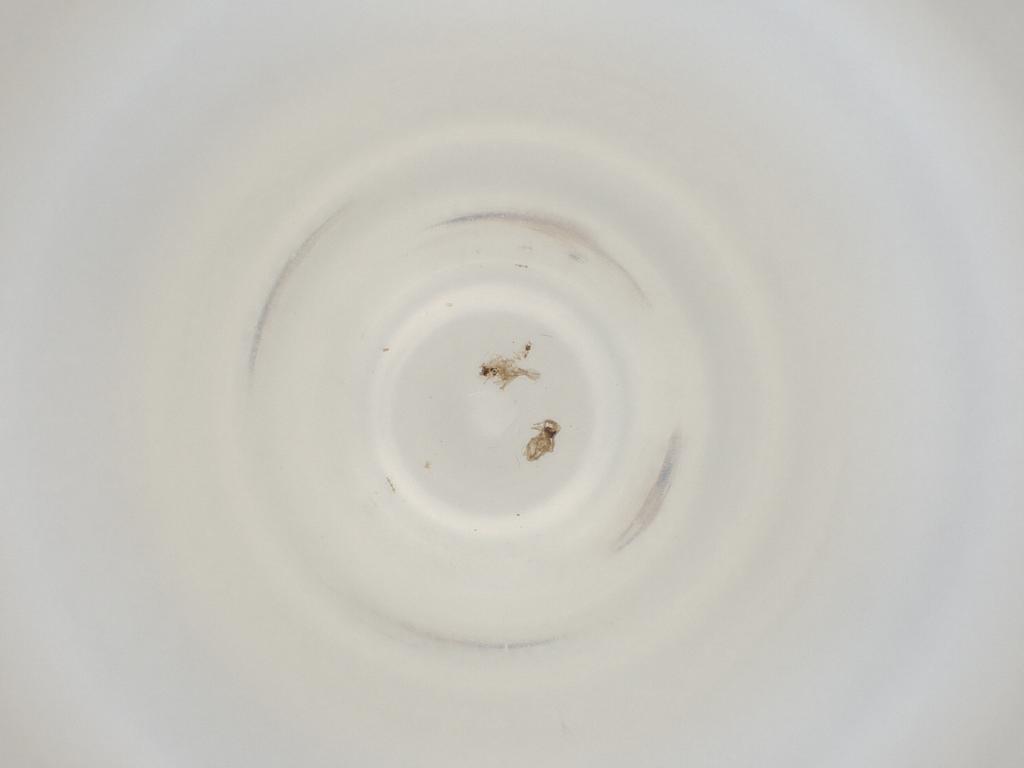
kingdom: Animalia
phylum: Arthropoda
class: Insecta
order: Diptera
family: Cecidomyiidae
